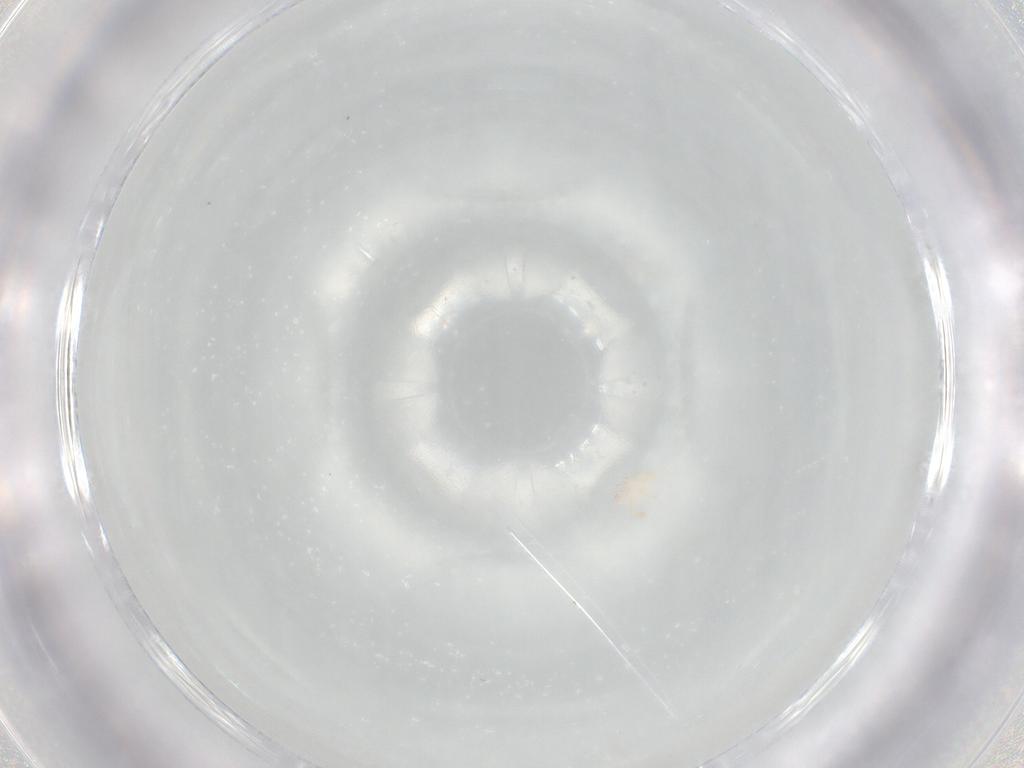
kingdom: Animalia
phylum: Arthropoda
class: Insecta
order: Diptera
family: Sciaridae
